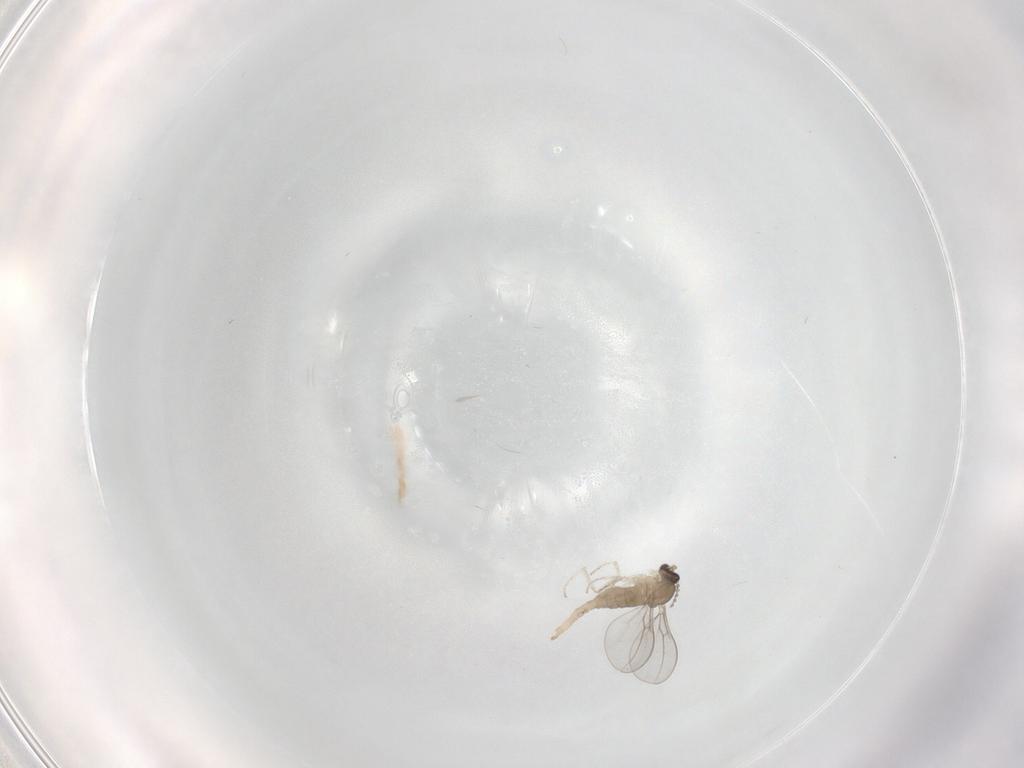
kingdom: Animalia
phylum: Arthropoda
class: Insecta
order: Diptera
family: Cecidomyiidae
